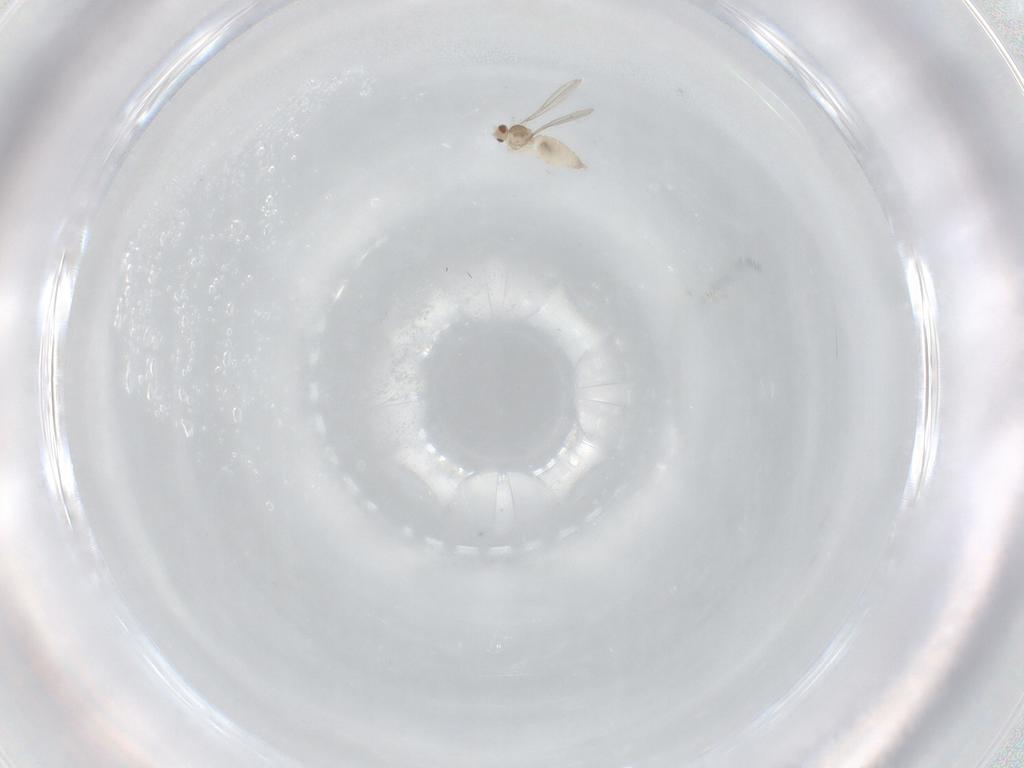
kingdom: Animalia
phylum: Arthropoda
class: Insecta
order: Diptera
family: Cecidomyiidae
